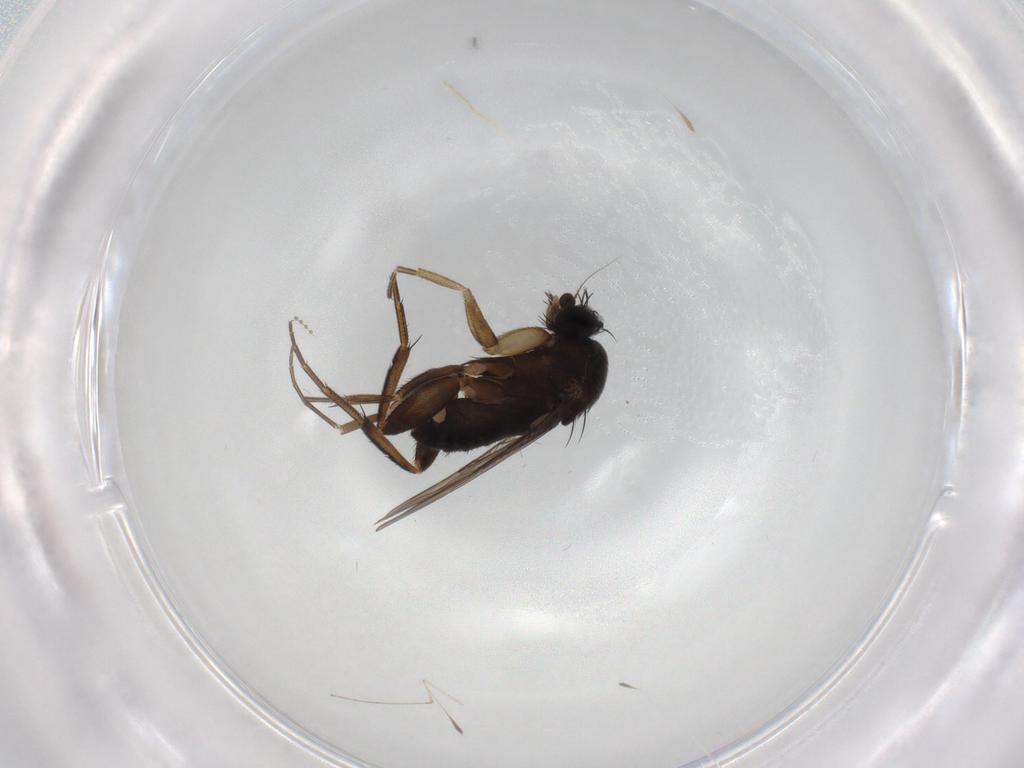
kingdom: Animalia
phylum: Arthropoda
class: Insecta
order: Diptera
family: Phoridae
